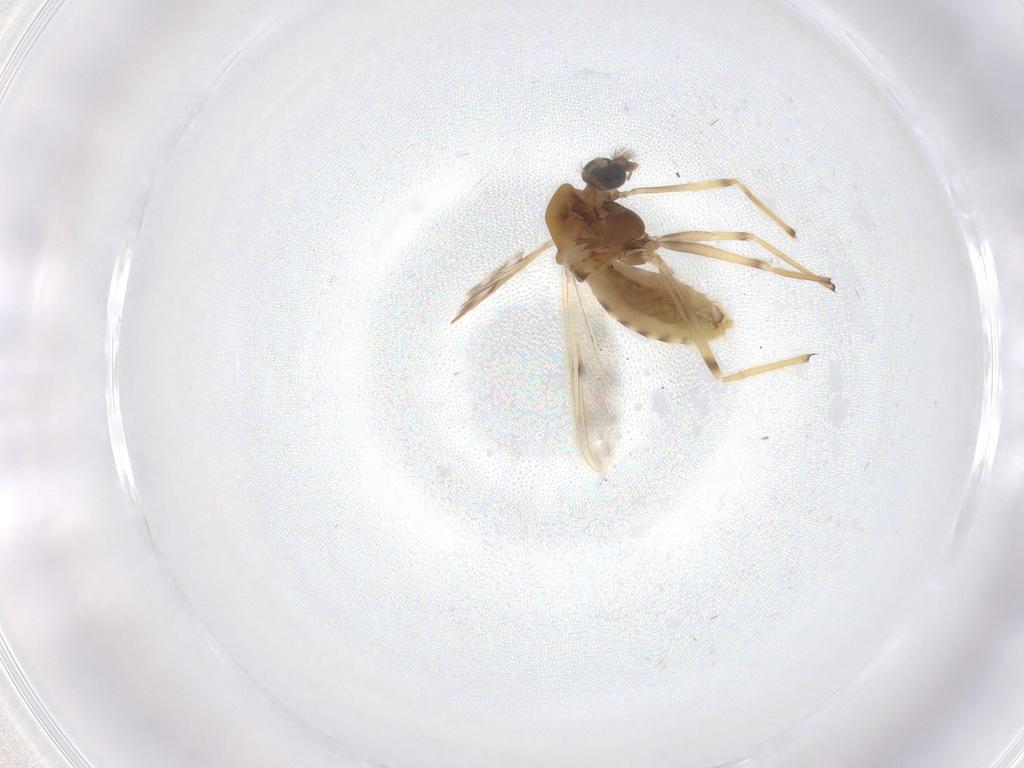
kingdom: Animalia
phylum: Arthropoda
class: Insecta
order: Diptera
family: Chironomidae
